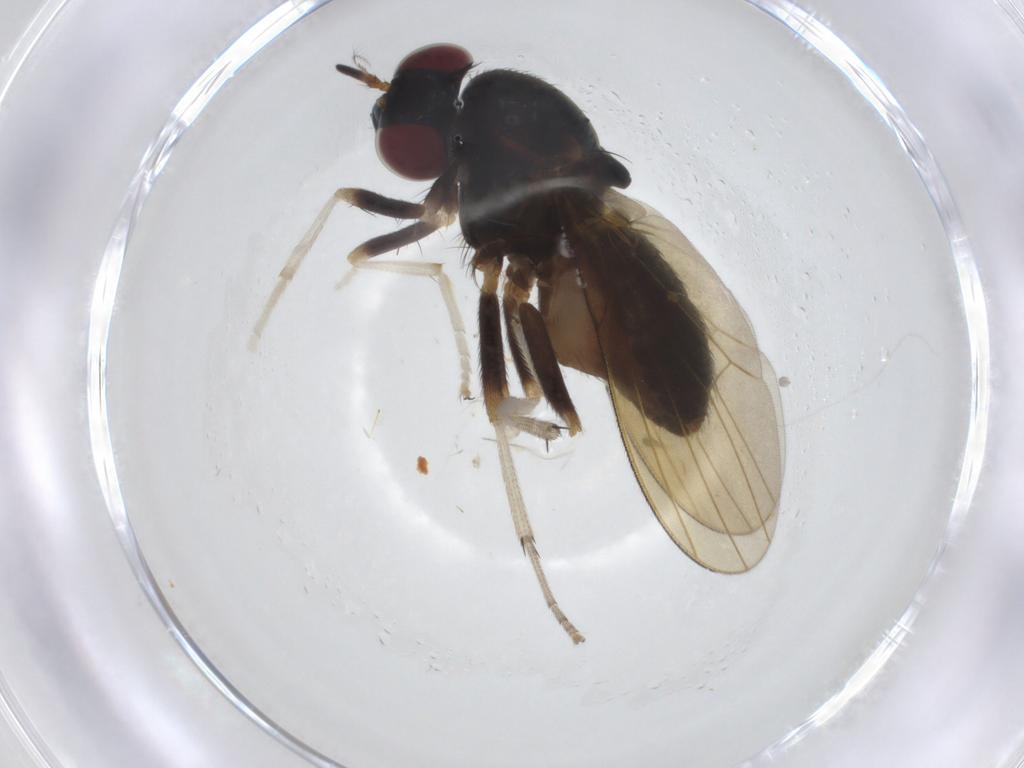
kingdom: Animalia
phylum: Arthropoda
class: Insecta
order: Diptera
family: Lauxaniidae
